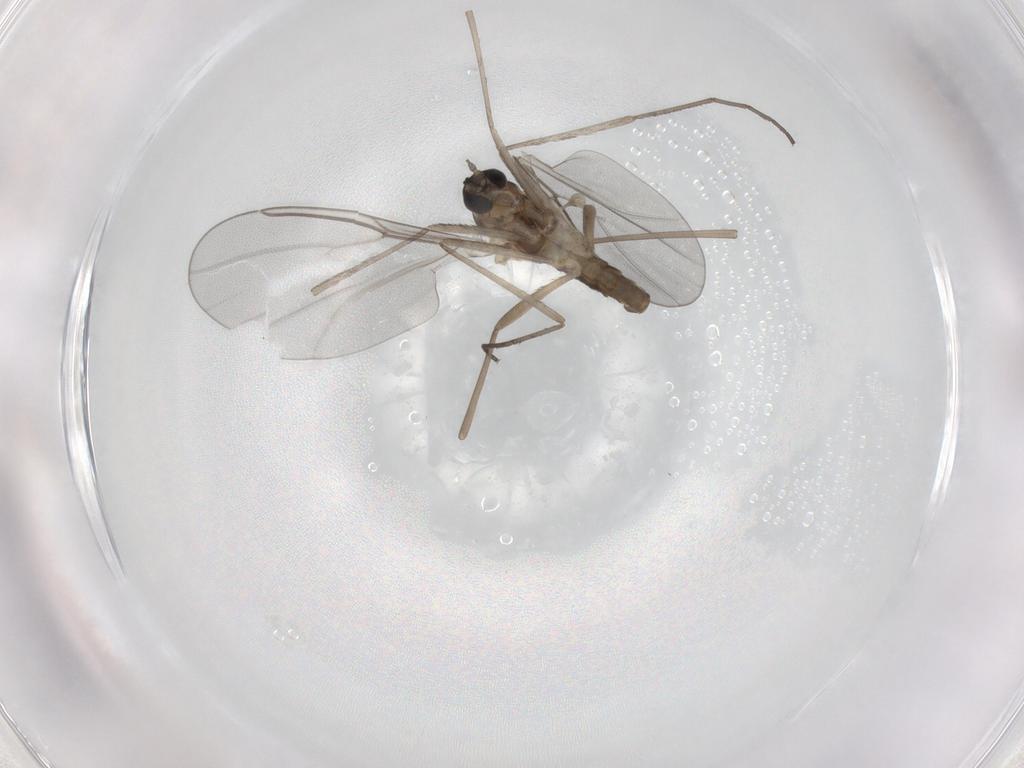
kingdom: Animalia
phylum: Arthropoda
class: Insecta
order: Diptera
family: Cecidomyiidae
